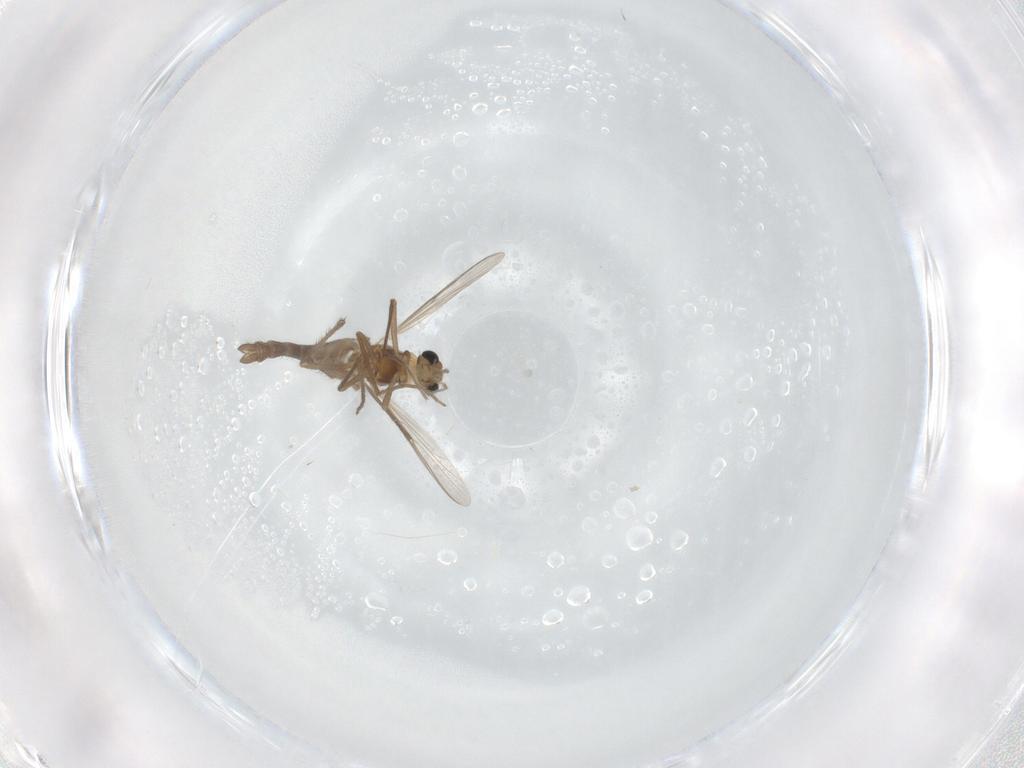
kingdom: Animalia
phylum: Arthropoda
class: Insecta
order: Diptera
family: Chironomidae
